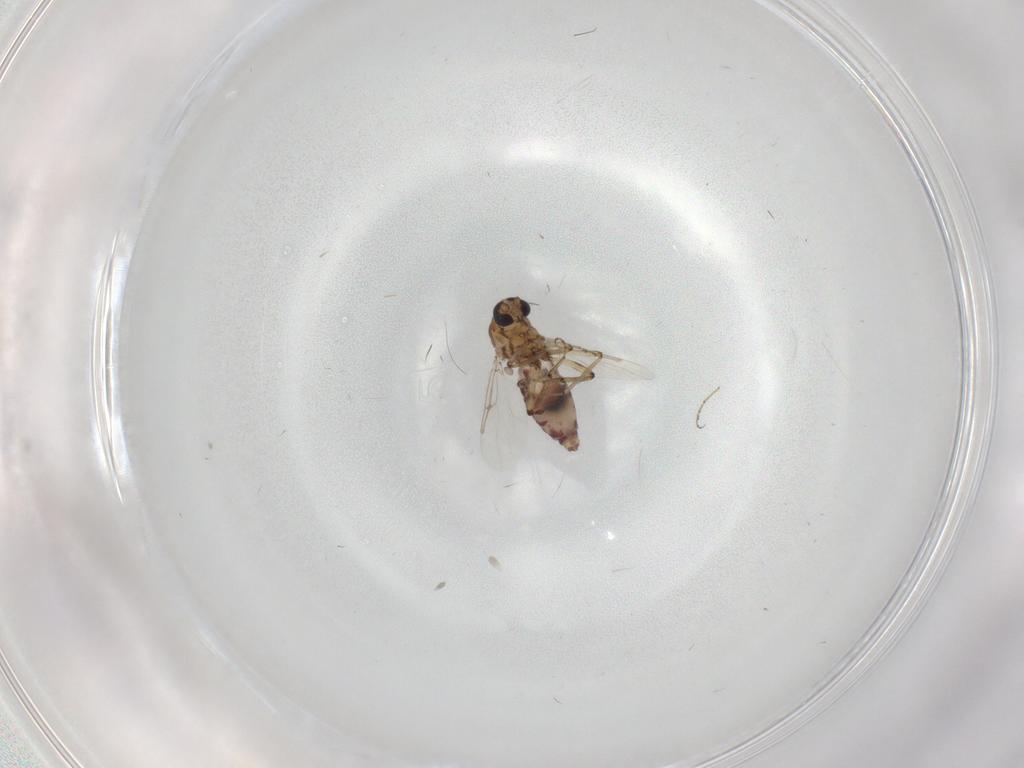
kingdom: Animalia
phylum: Arthropoda
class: Insecta
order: Diptera
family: Ceratopogonidae
